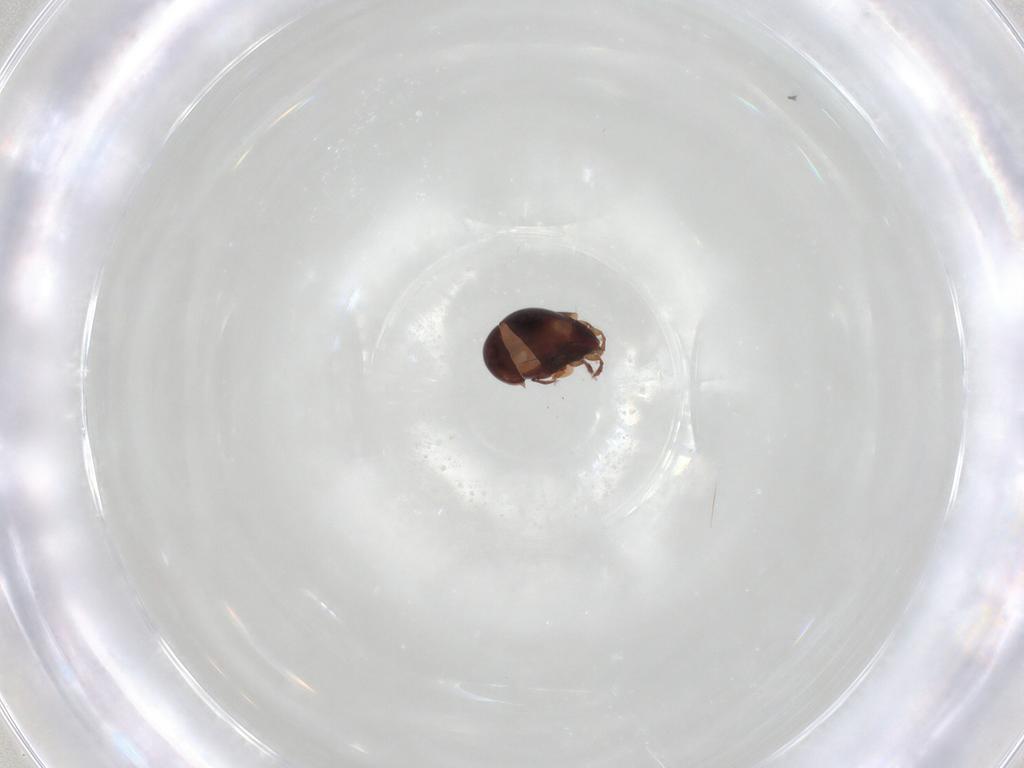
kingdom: Animalia
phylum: Arthropoda
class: Arachnida
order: Sarcoptiformes
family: Humerobatidae
